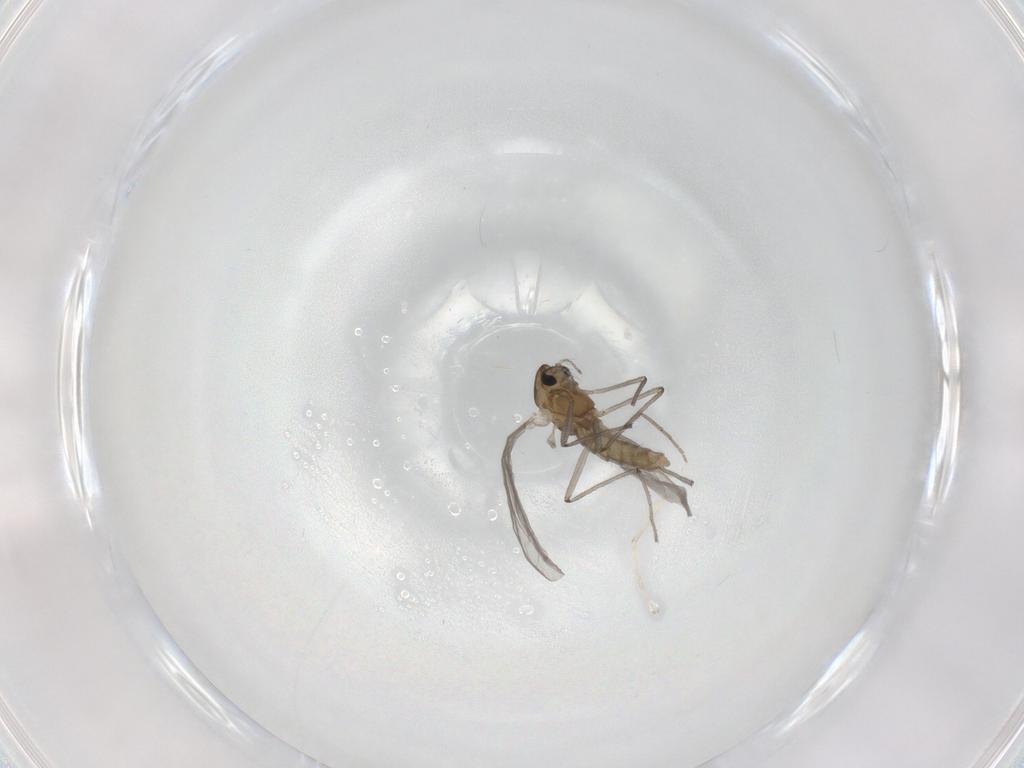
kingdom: Animalia
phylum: Arthropoda
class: Insecta
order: Diptera
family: Chironomidae
